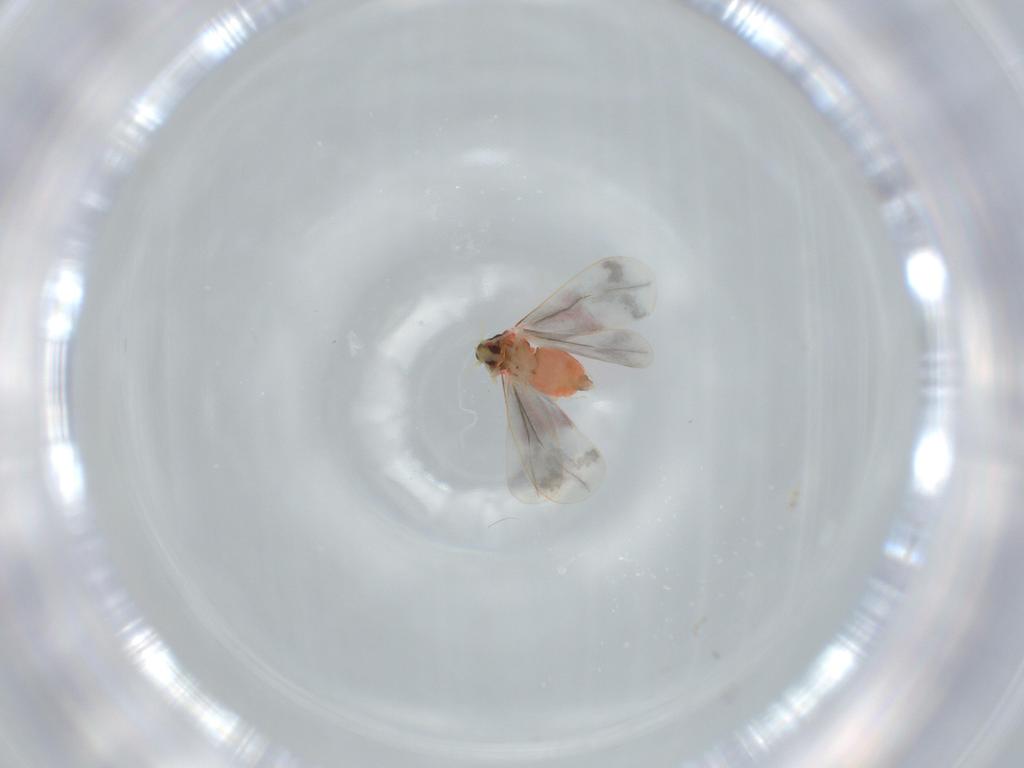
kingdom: Animalia
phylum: Arthropoda
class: Insecta
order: Hemiptera
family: Aleyrodidae
